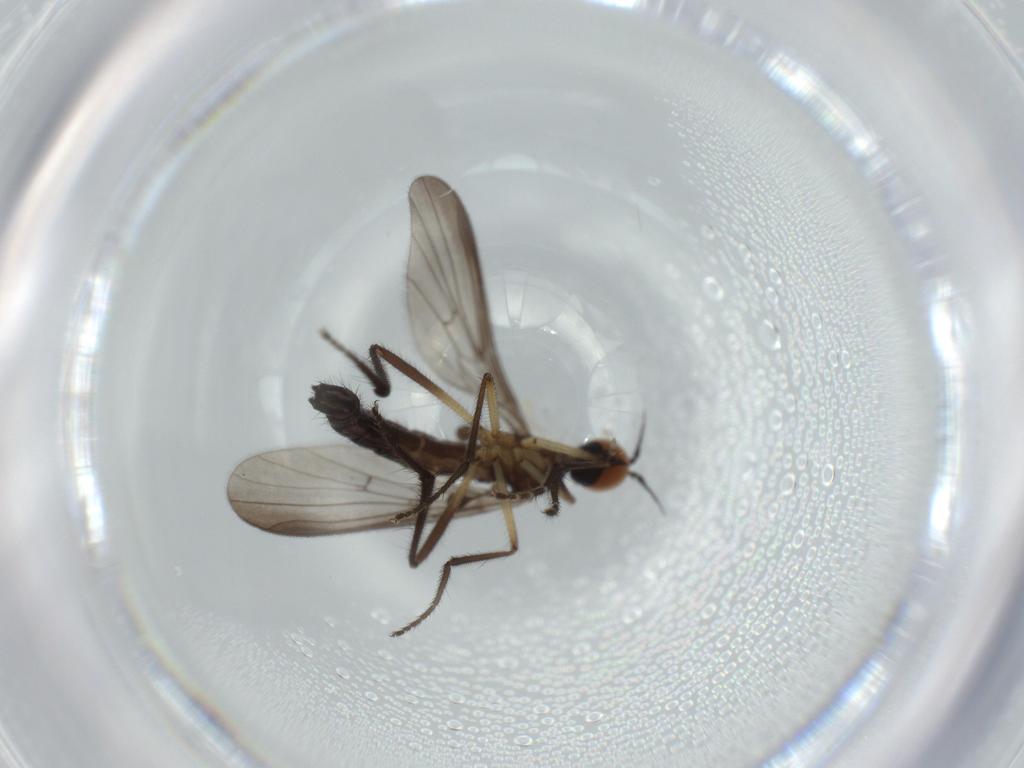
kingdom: Animalia
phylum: Arthropoda
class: Insecta
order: Diptera
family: Empididae
